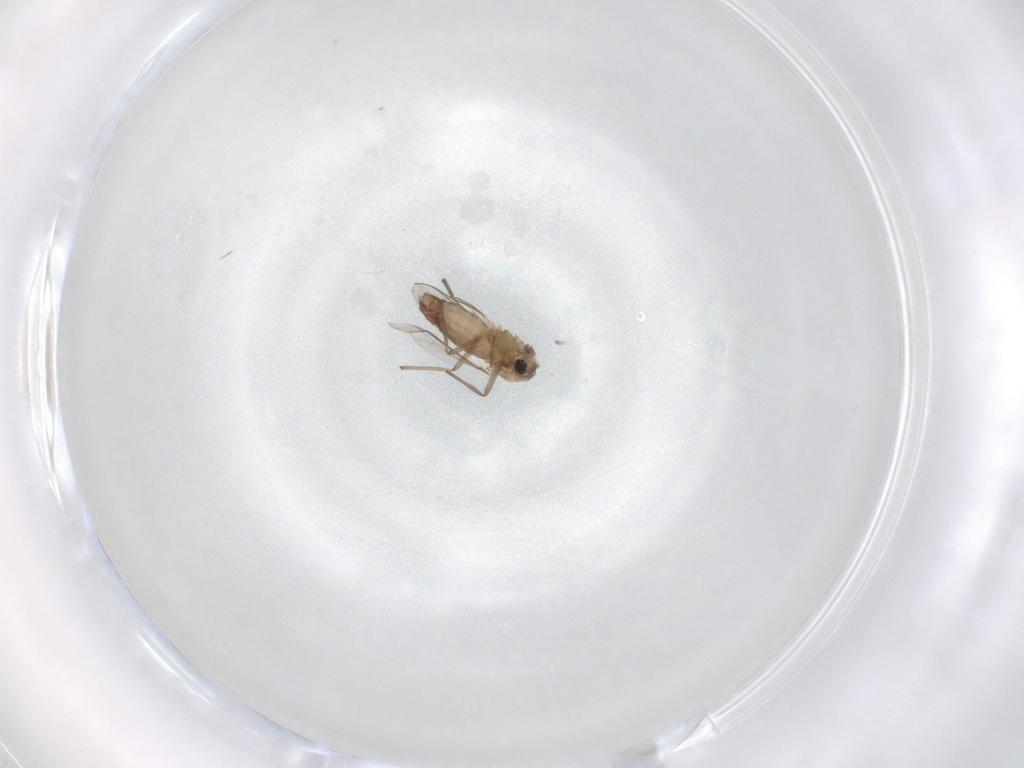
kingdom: Animalia
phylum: Arthropoda
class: Insecta
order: Diptera
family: Chironomidae
